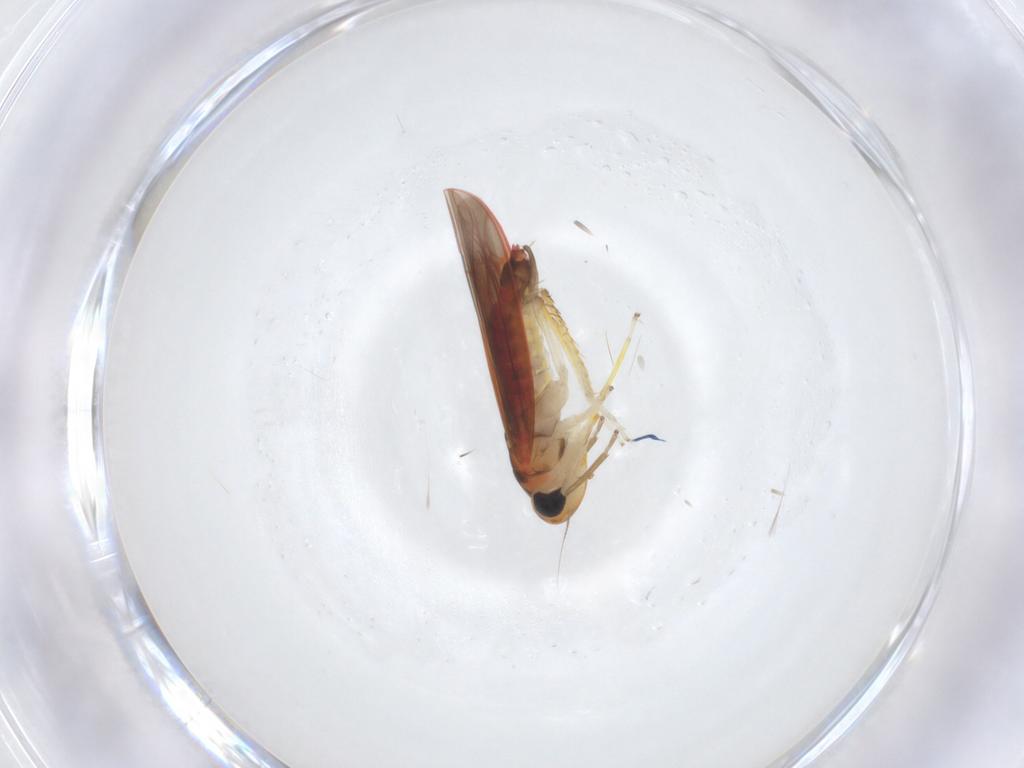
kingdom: Animalia
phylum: Arthropoda
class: Insecta
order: Hemiptera
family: Cicadellidae
